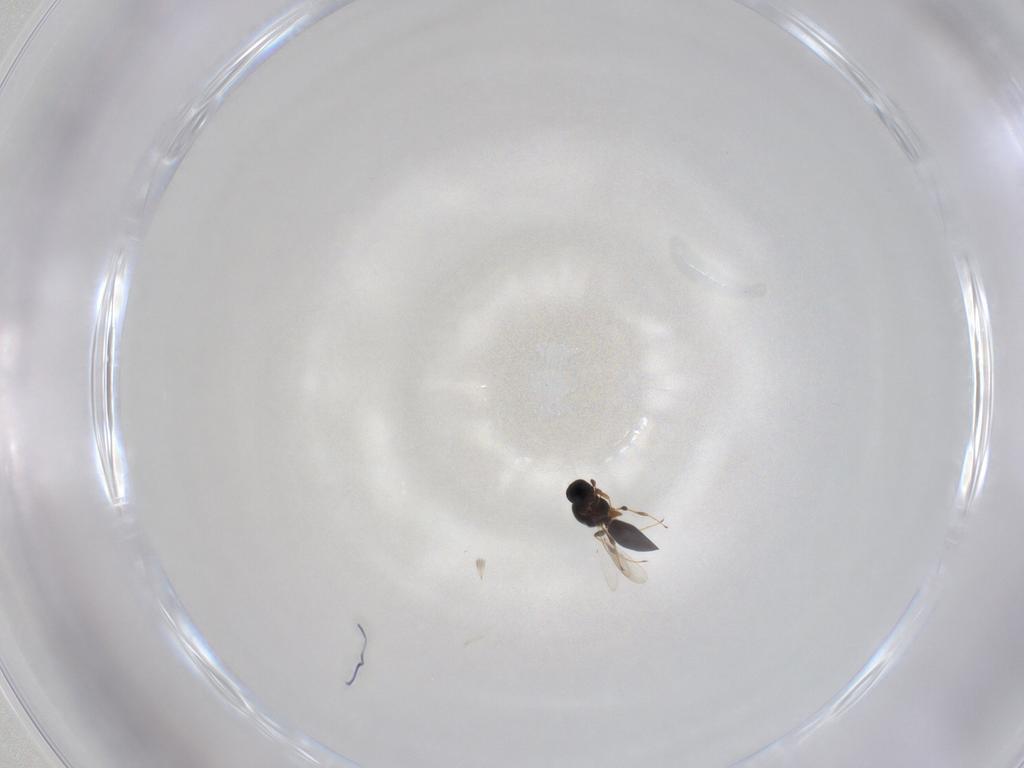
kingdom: Animalia
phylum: Arthropoda
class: Insecta
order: Hymenoptera
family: Platygastridae
